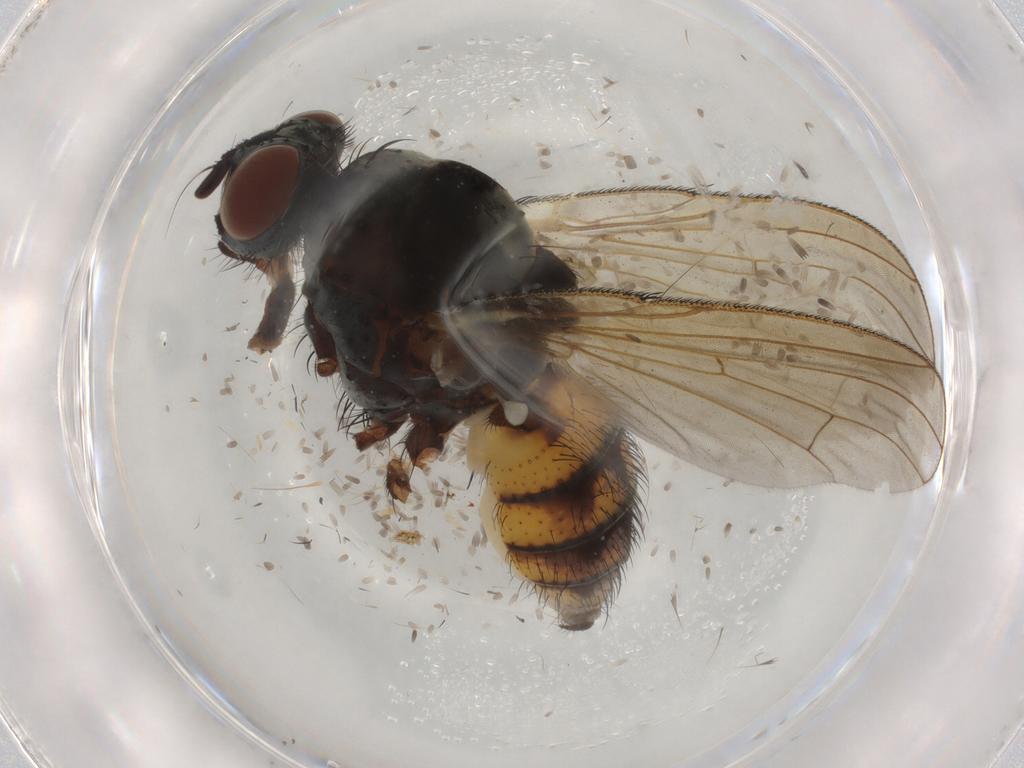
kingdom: Animalia
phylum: Arthropoda
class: Insecta
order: Diptera
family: Anthomyiidae
